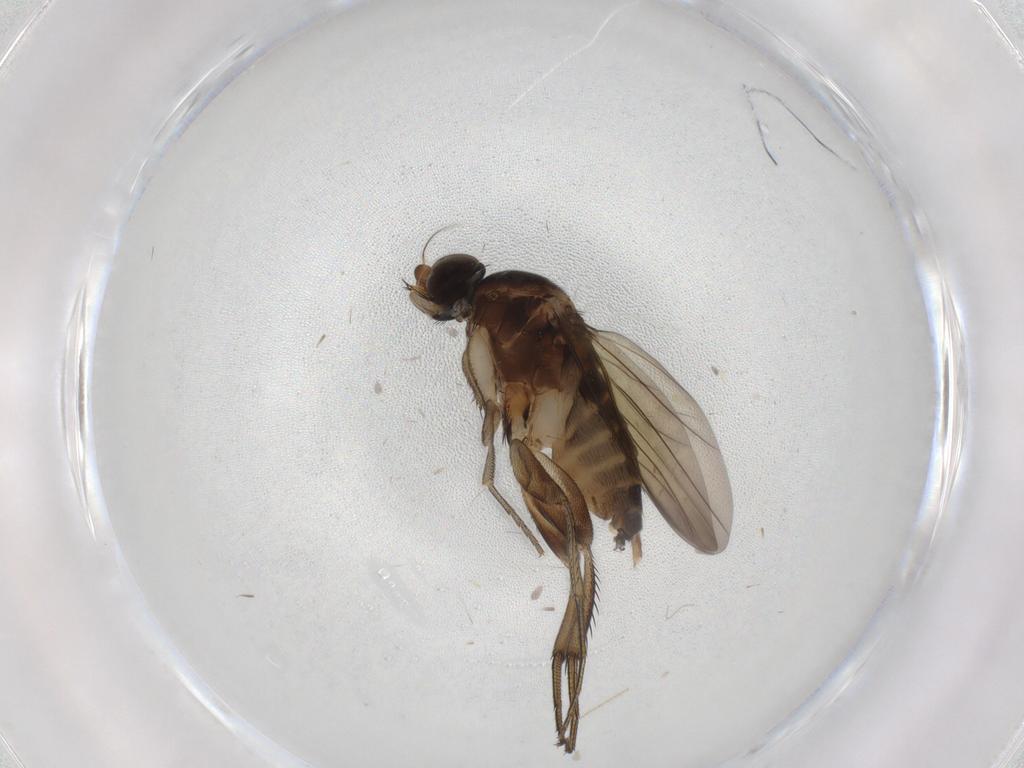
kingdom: Animalia
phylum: Arthropoda
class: Insecta
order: Diptera
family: Phoridae
